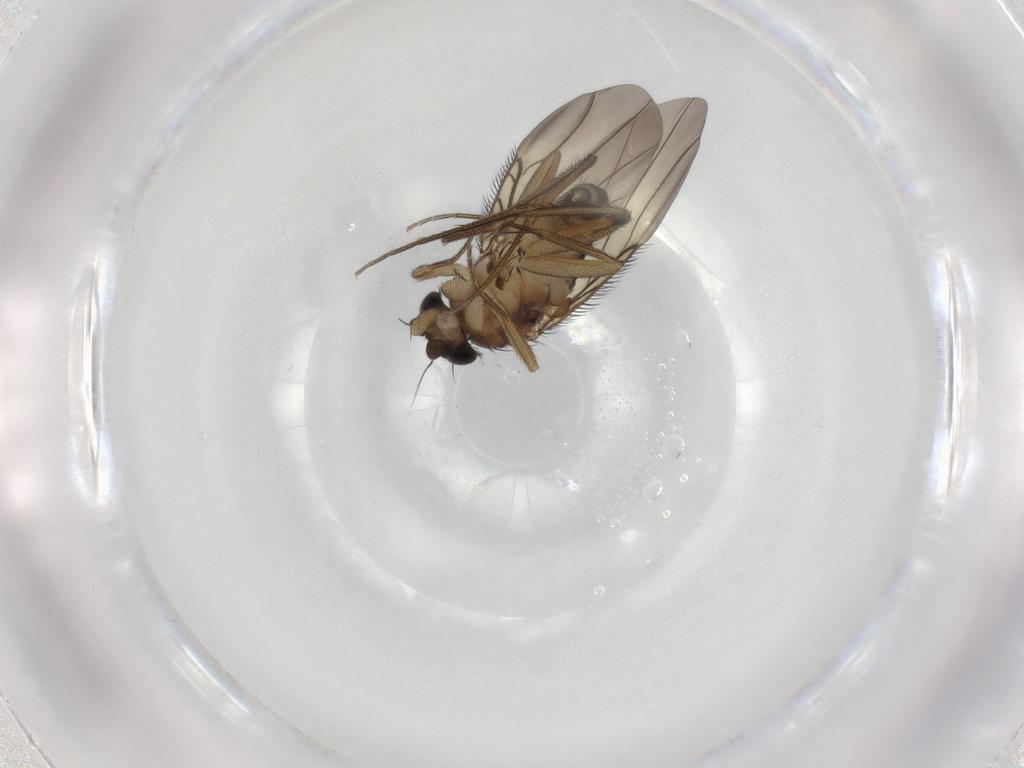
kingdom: Animalia
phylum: Arthropoda
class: Insecta
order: Diptera
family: Phoridae
